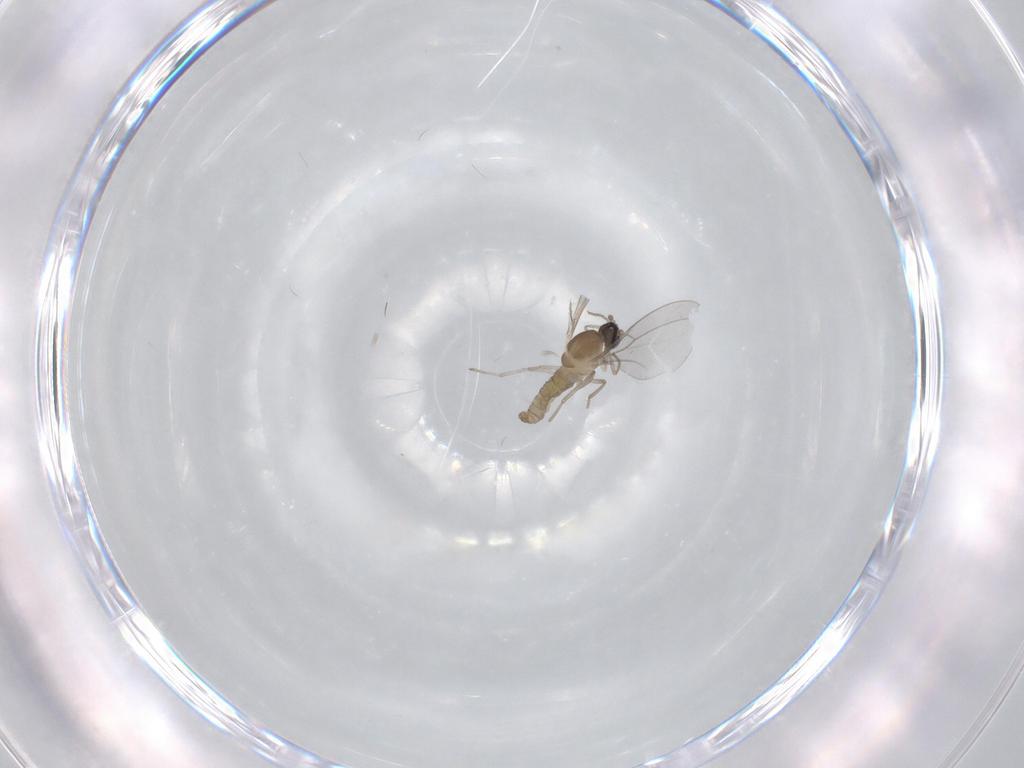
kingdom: Animalia
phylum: Arthropoda
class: Insecta
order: Diptera
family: Cecidomyiidae
